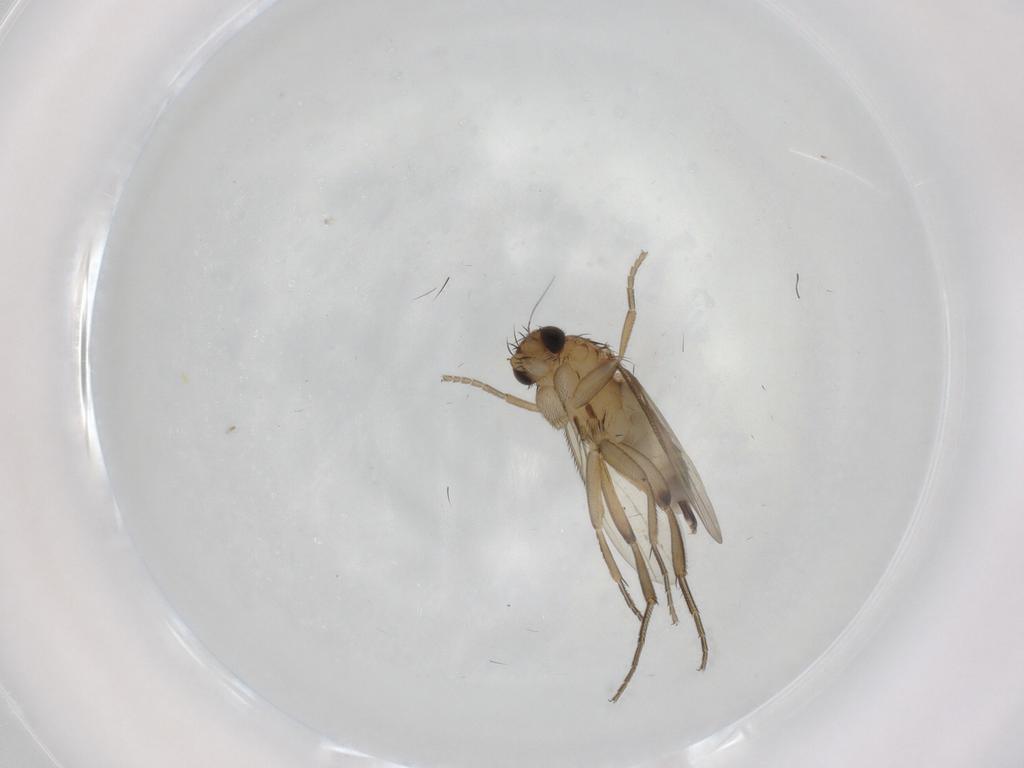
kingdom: Animalia
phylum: Arthropoda
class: Insecta
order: Diptera
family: Phoridae
